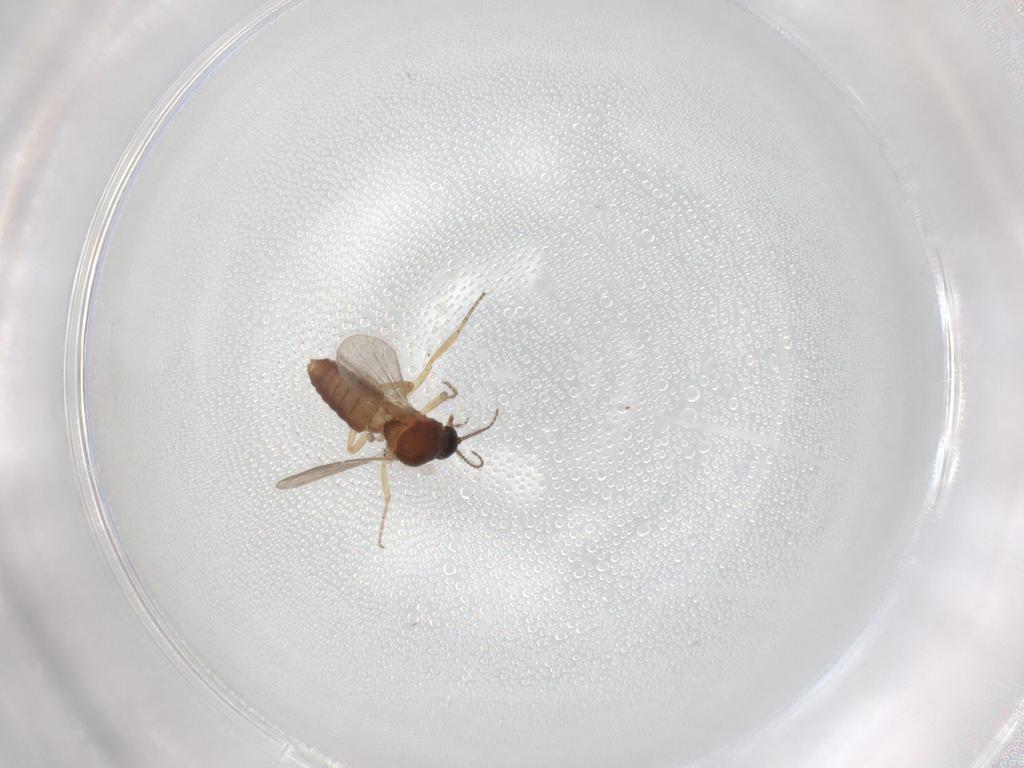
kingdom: Animalia
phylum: Arthropoda
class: Insecta
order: Diptera
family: Ceratopogonidae
